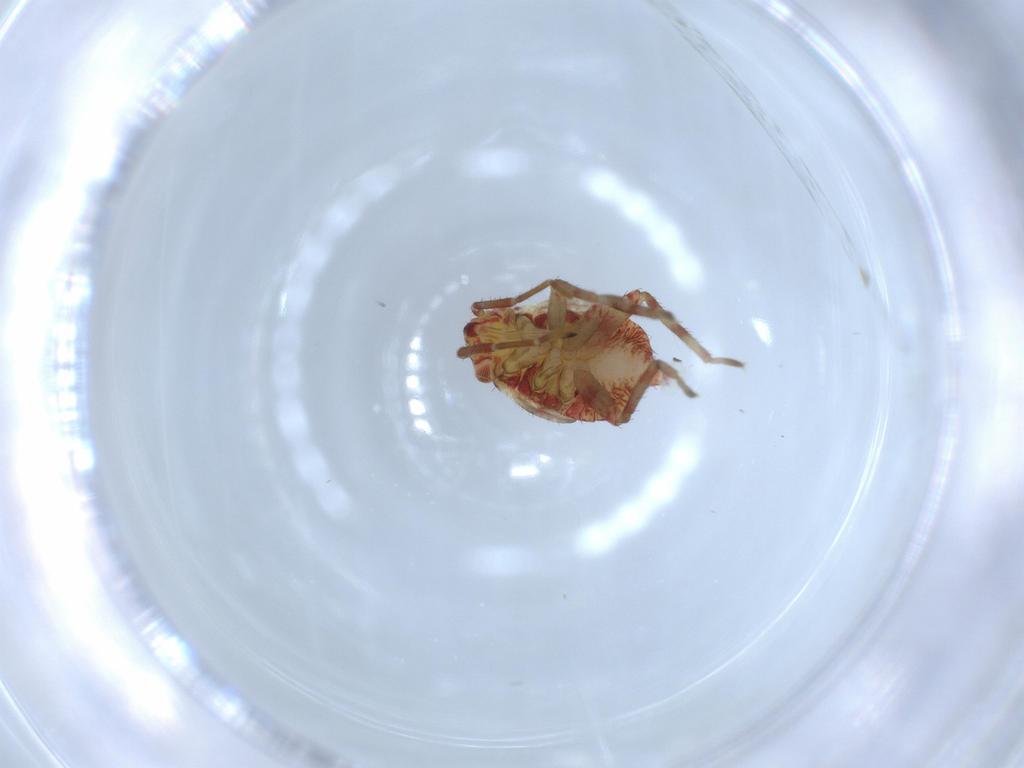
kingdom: Animalia
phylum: Arthropoda
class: Insecta
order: Hemiptera
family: Miridae
